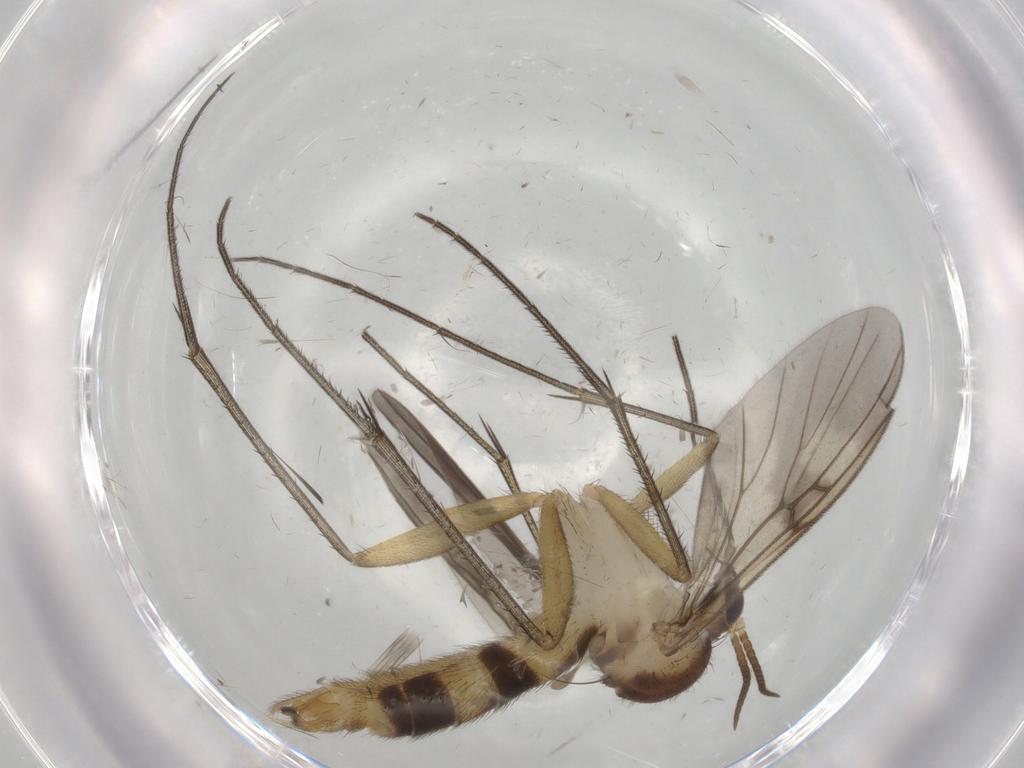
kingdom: Animalia
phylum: Arthropoda
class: Insecta
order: Diptera
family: Mycetophilidae
